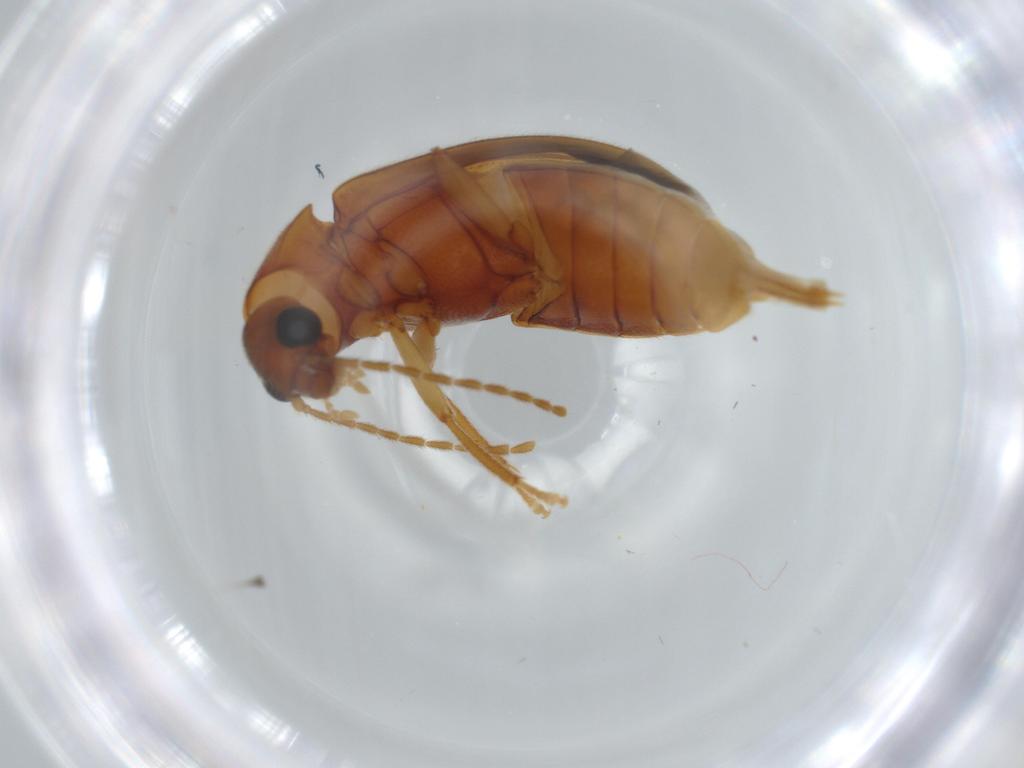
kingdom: Animalia
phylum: Arthropoda
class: Insecta
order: Coleoptera
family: Ptilodactylidae
